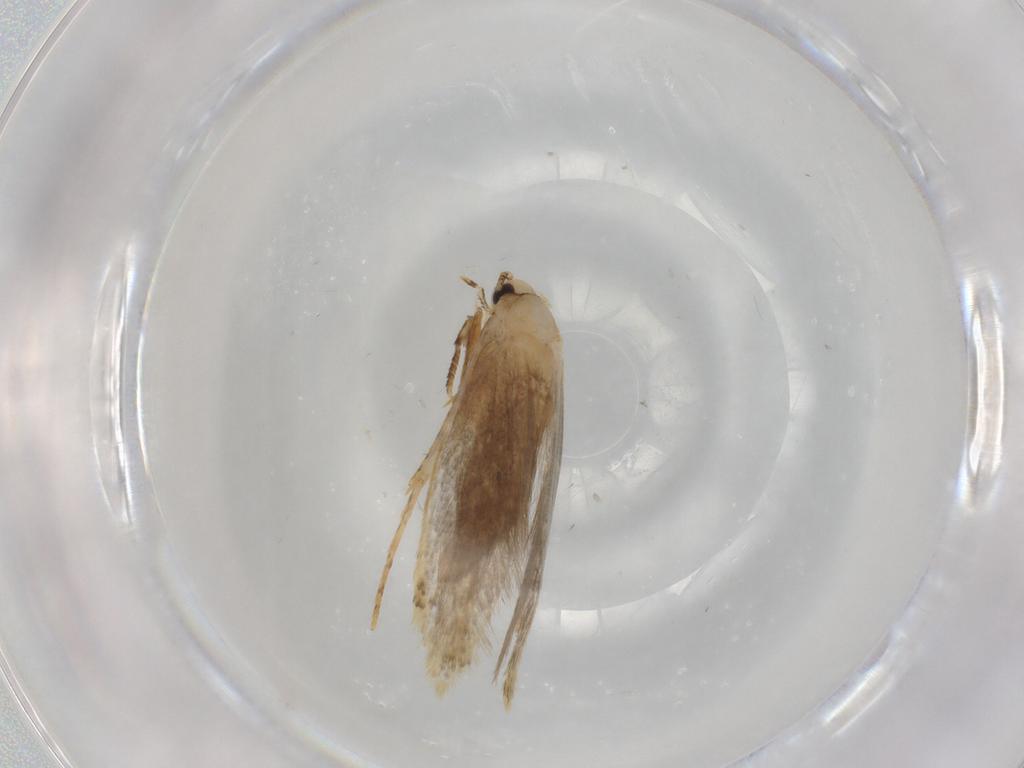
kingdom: Animalia
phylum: Arthropoda
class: Insecta
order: Lepidoptera
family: Tineidae
